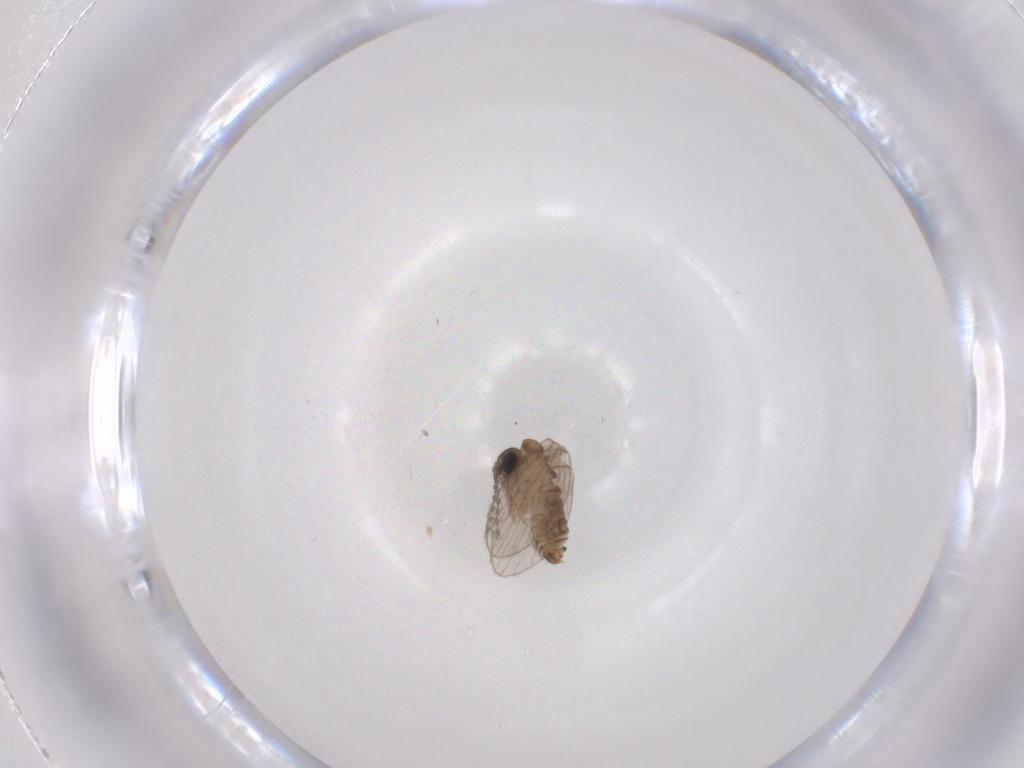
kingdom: Animalia
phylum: Arthropoda
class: Insecta
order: Diptera
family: Psychodidae
